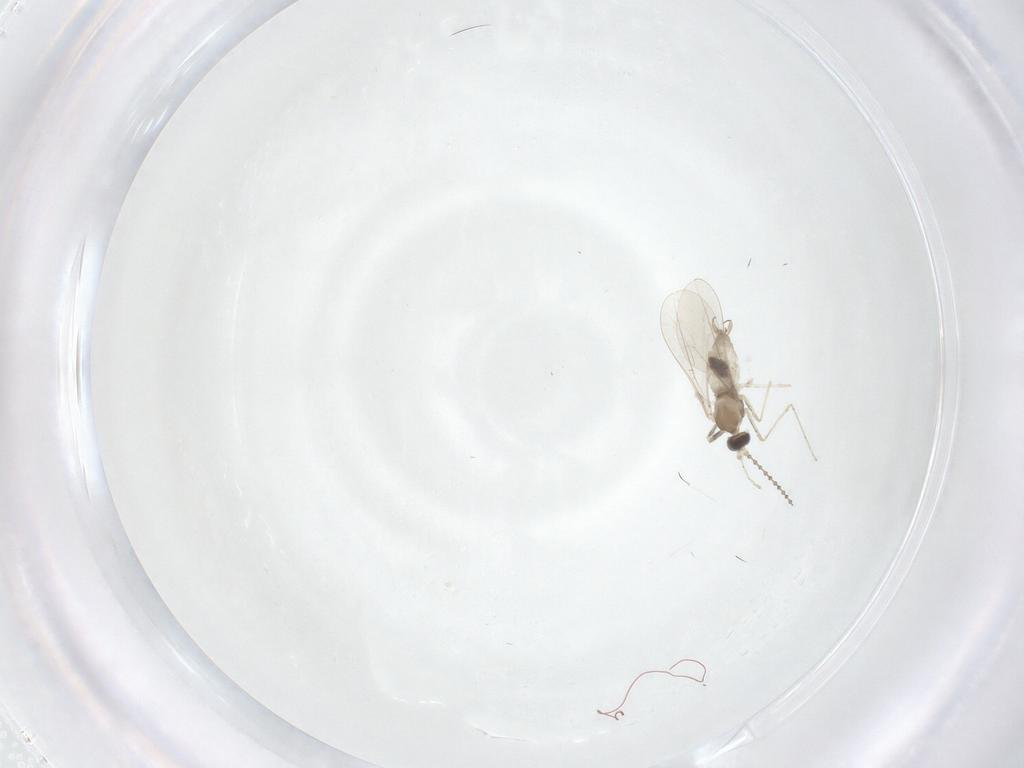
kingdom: Animalia
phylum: Arthropoda
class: Insecta
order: Diptera
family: Cecidomyiidae
